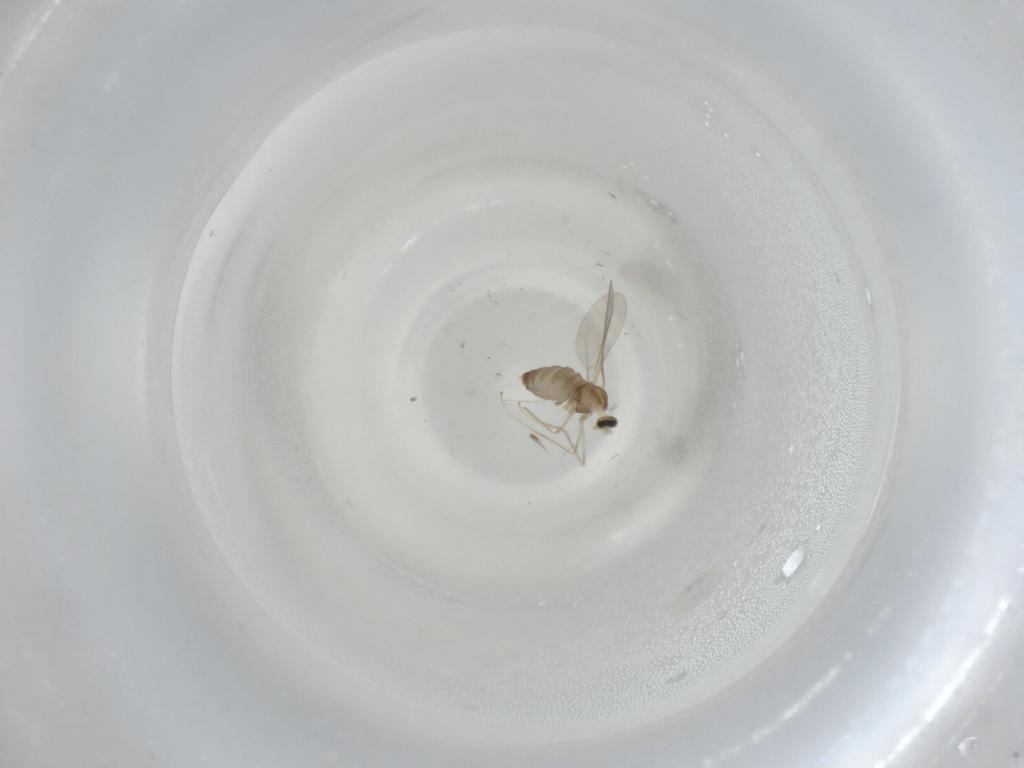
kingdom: Animalia
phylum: Arthropoda
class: Insecta
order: Diptera
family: Cecidomyiidae
